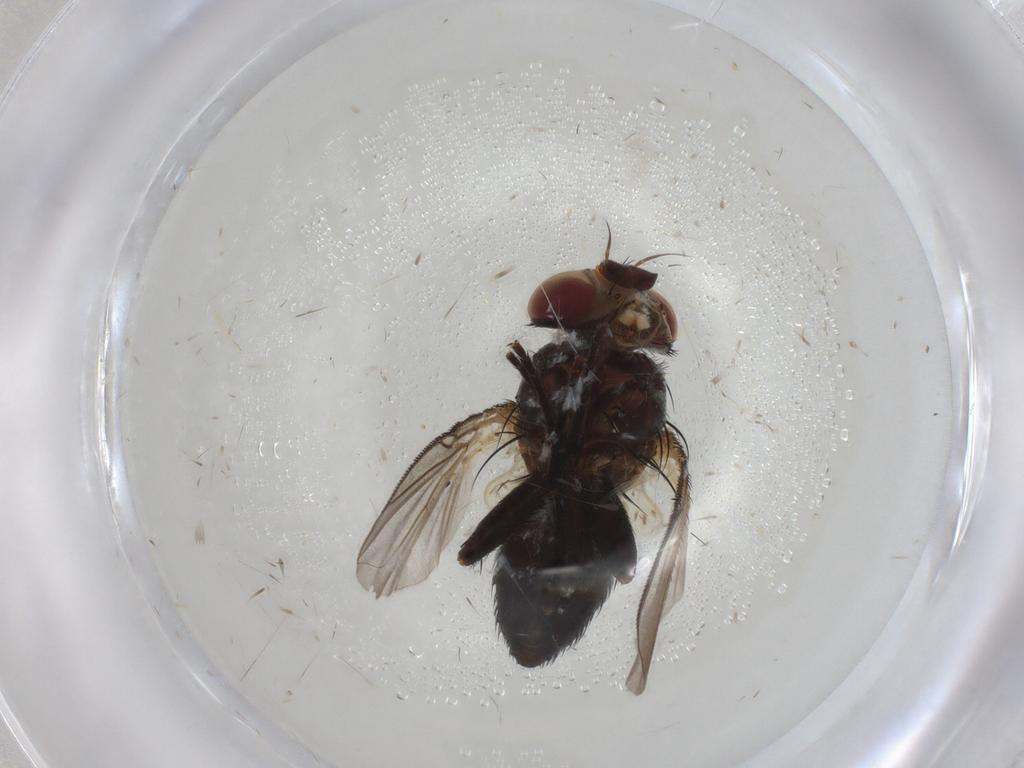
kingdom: Animalia
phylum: Arthropoda
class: Insecta
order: Diptera
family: Tachinidae
